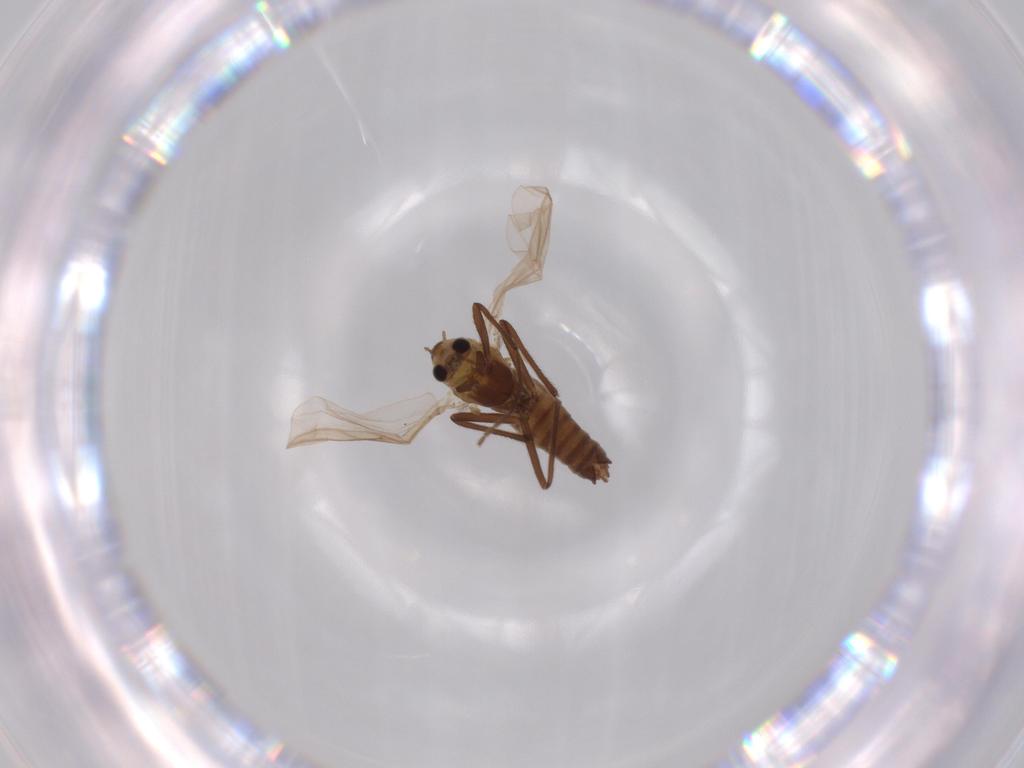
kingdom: Animalia
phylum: Arthropoda
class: Insecta
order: Diptera
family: Chironomidae
